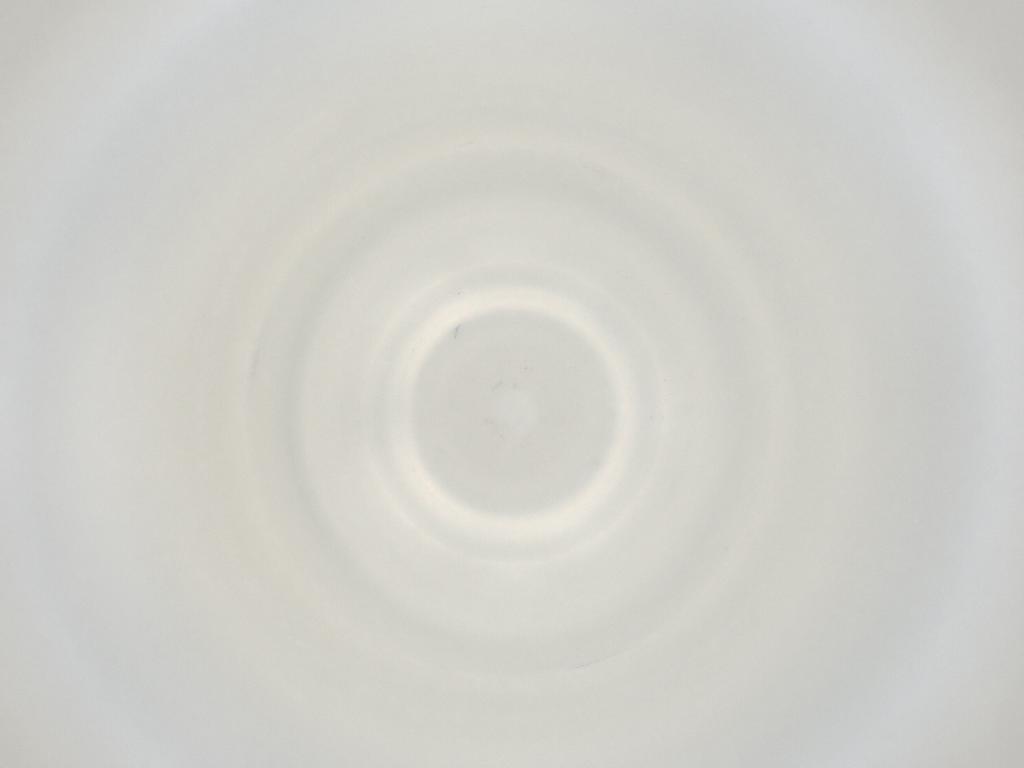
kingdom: Animalia
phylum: Arthropoda
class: Insecta
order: Diptera
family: Cecidomyiidae
